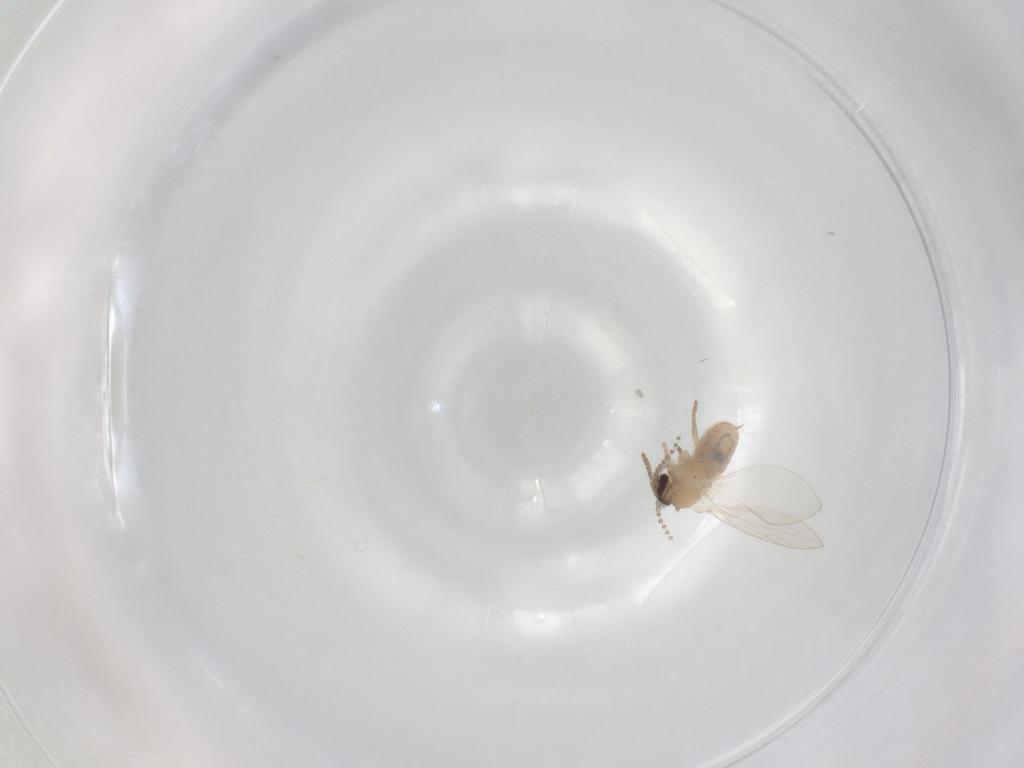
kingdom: Animalia
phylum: Arthropoda
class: Insecta
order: Diptera
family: Psychodidae
